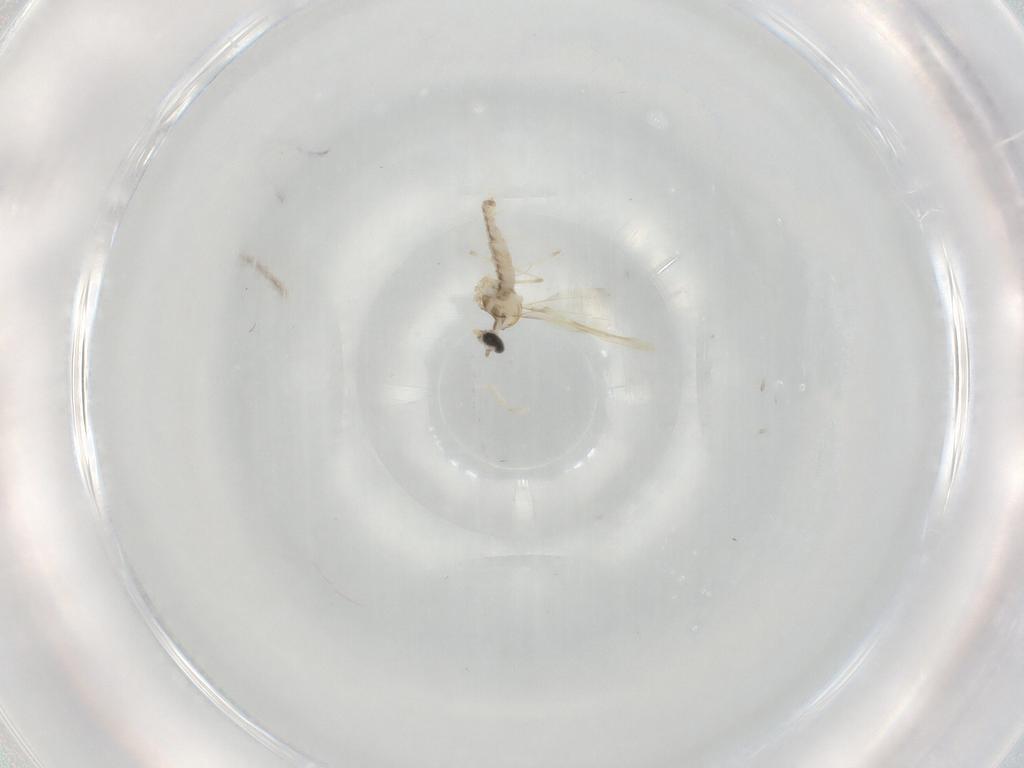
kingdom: Animalia
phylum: Arthropoda
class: Insecta
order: Diptera
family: Cecidomyiidae
